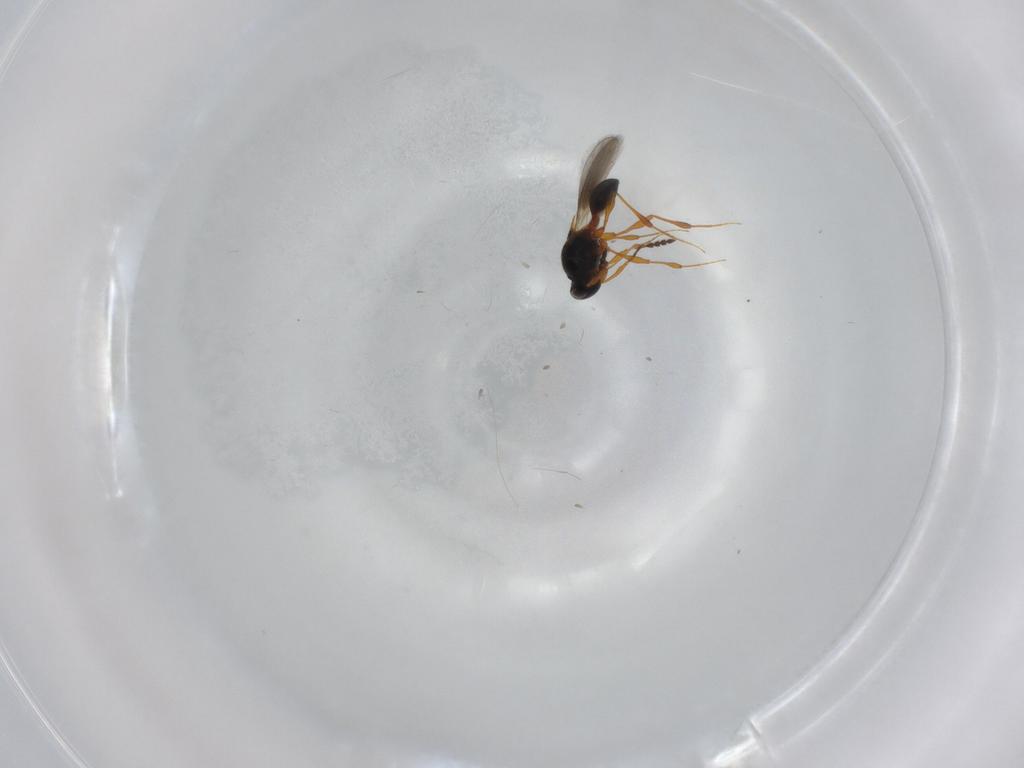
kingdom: Animalia
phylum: Arthropoda
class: Insecta
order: Hymenoptera
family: Platygastridae
